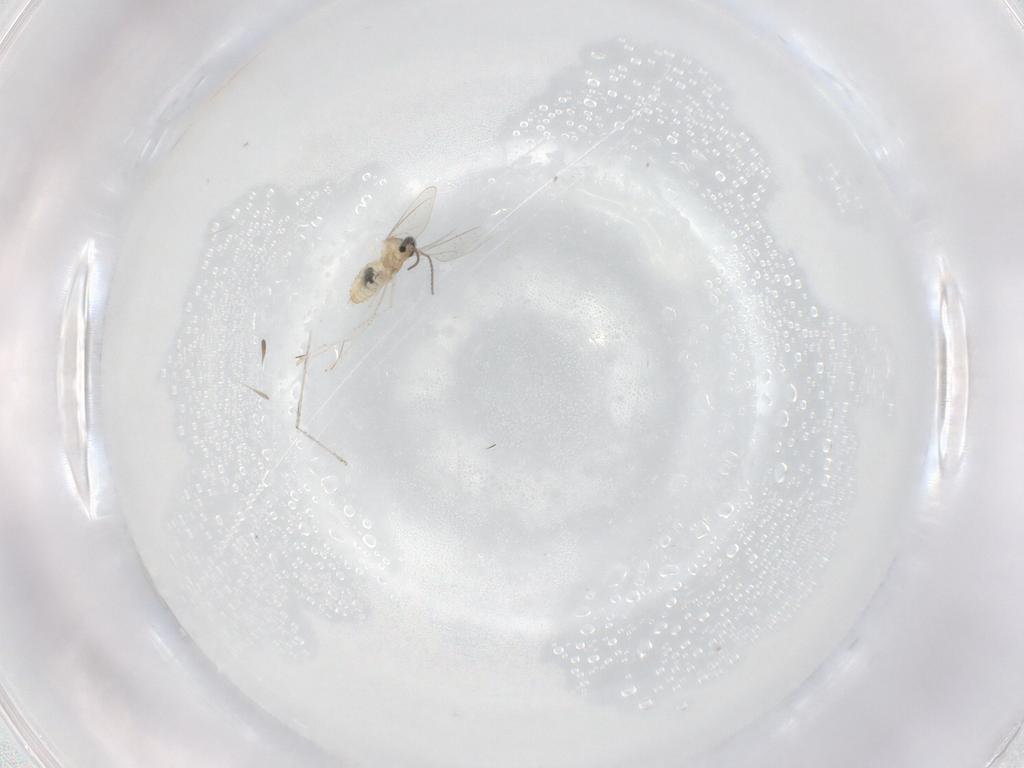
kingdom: Animalia
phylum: Arthropoda
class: Insecta
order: Diptera
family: Cecidomyiidae
